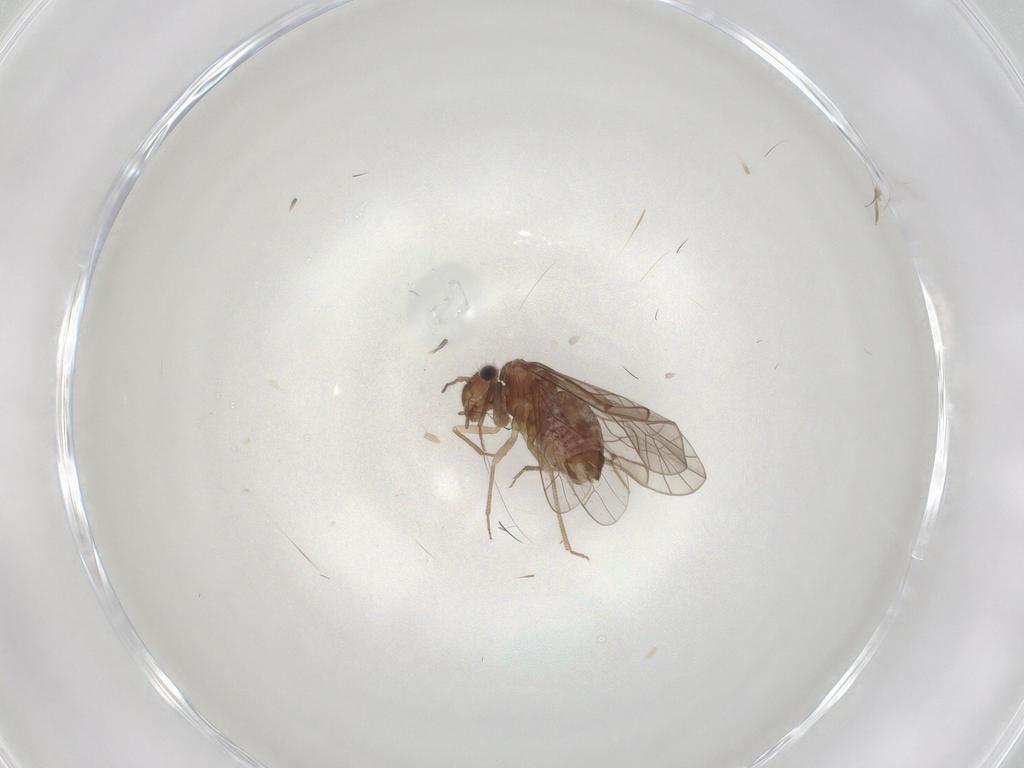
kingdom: Animalia
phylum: Arthropoda
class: Insecta
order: Psocodea
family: Lachesillidae
